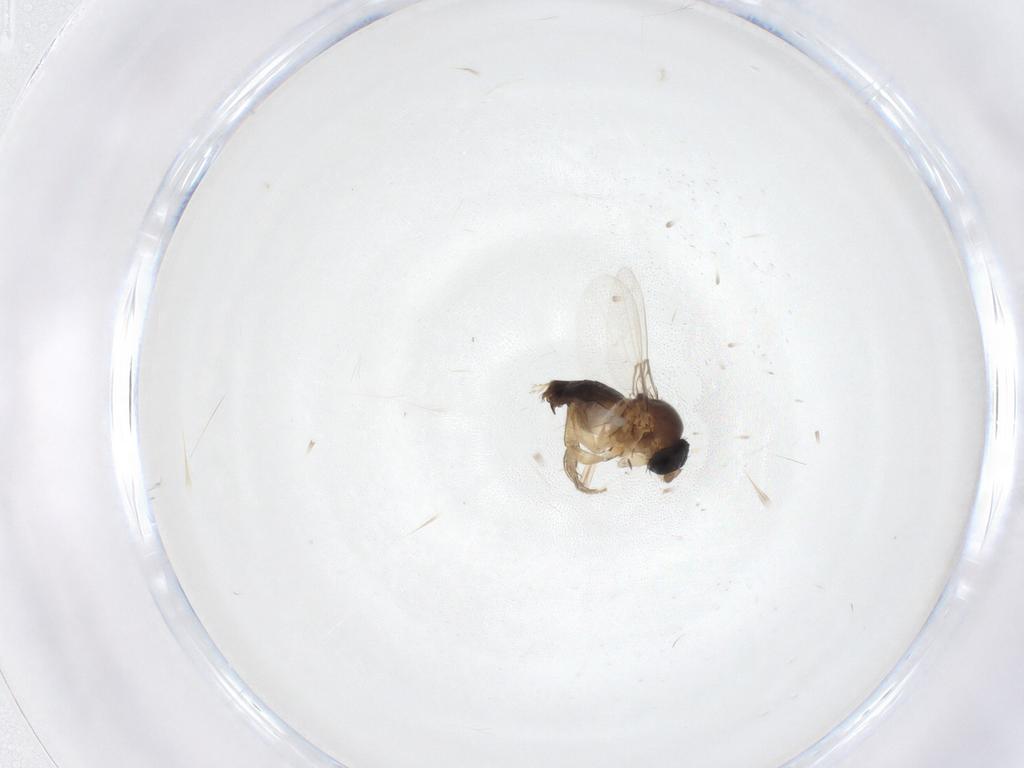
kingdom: Animalia
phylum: Arthropoda
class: Insecta
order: Diptera
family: Phoridae
